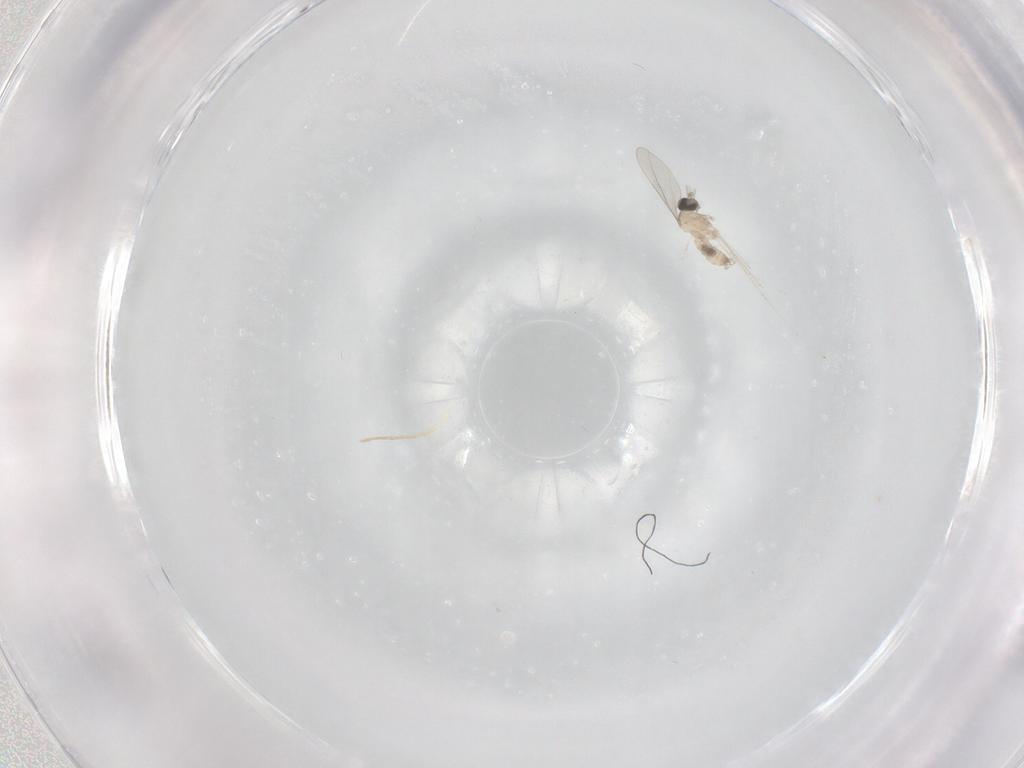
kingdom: Animalia
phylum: Arthropoda
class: Insecta
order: Diptera
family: Cecidomyiidae
